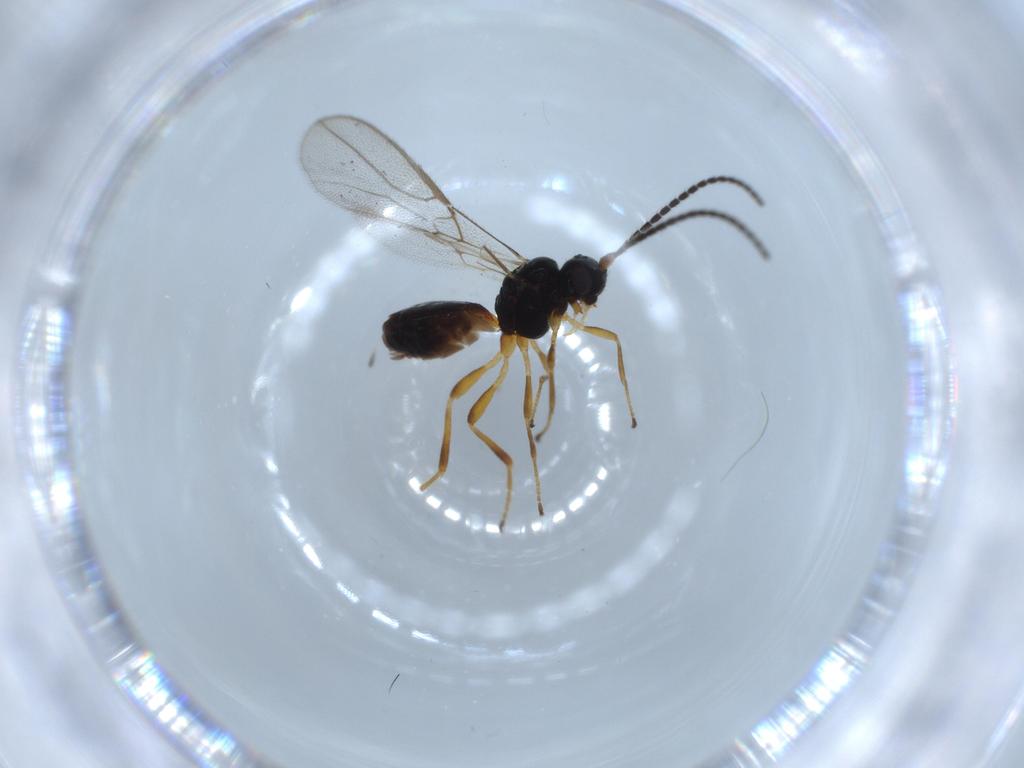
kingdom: Animalia
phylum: Arthropoda
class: Insecta
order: Hymenoptera
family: Braconidae
